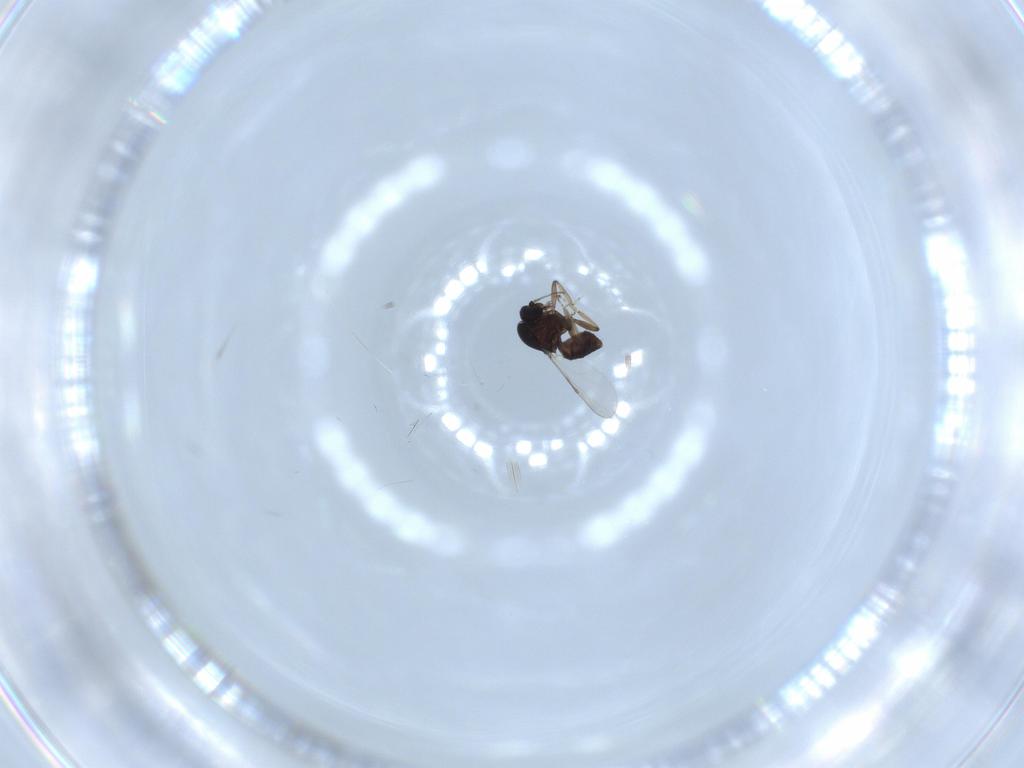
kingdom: Animalia
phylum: Arthropoda
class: Insecta
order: Diptera
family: Ceratopogonidae
